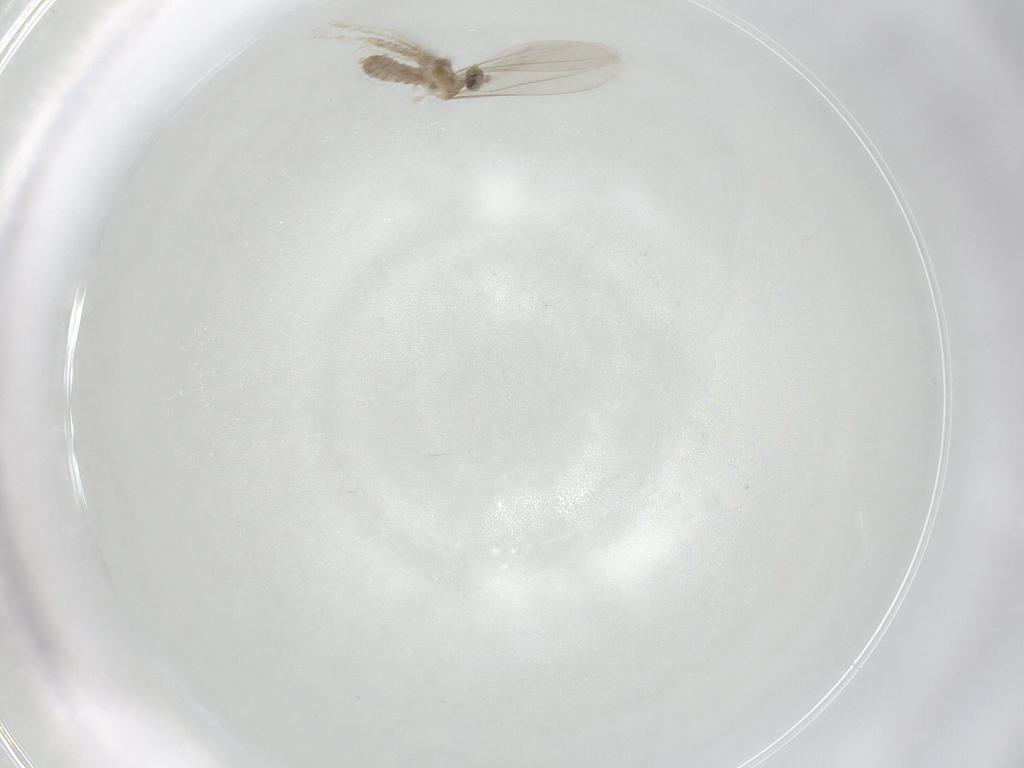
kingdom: Animalia
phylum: Arthropoda
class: Insecta
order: Diptera
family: Cecidomyiidae
